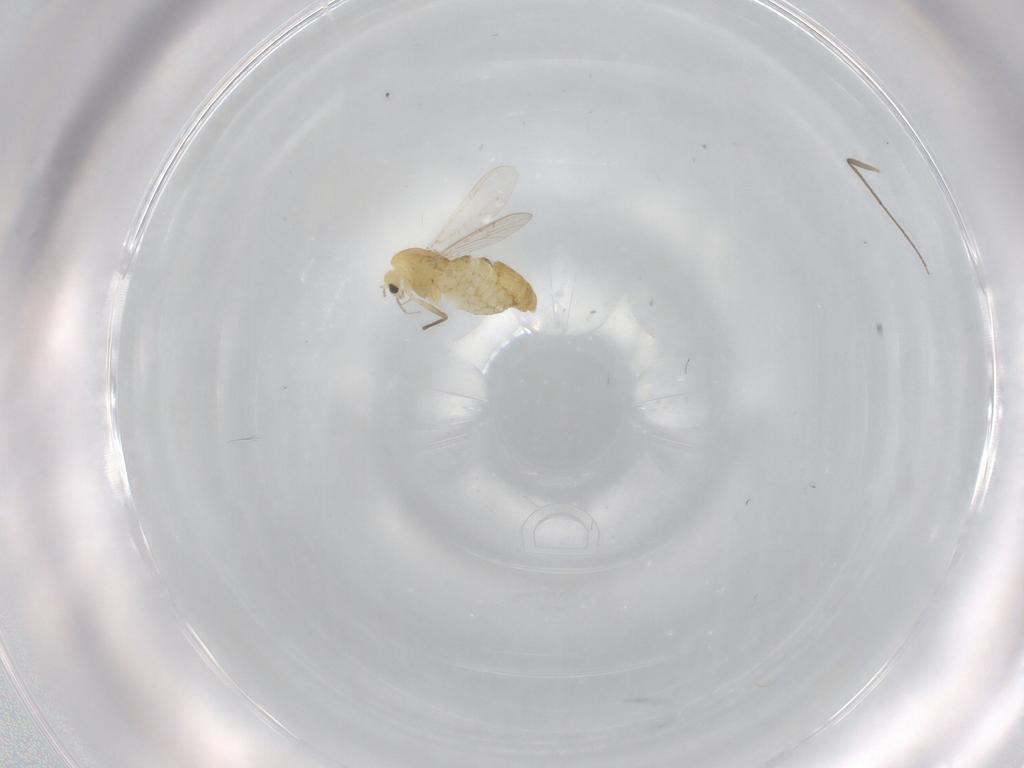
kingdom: Animalia
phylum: Arthropoda
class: Insecta
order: Diptera
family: Chironomidae
